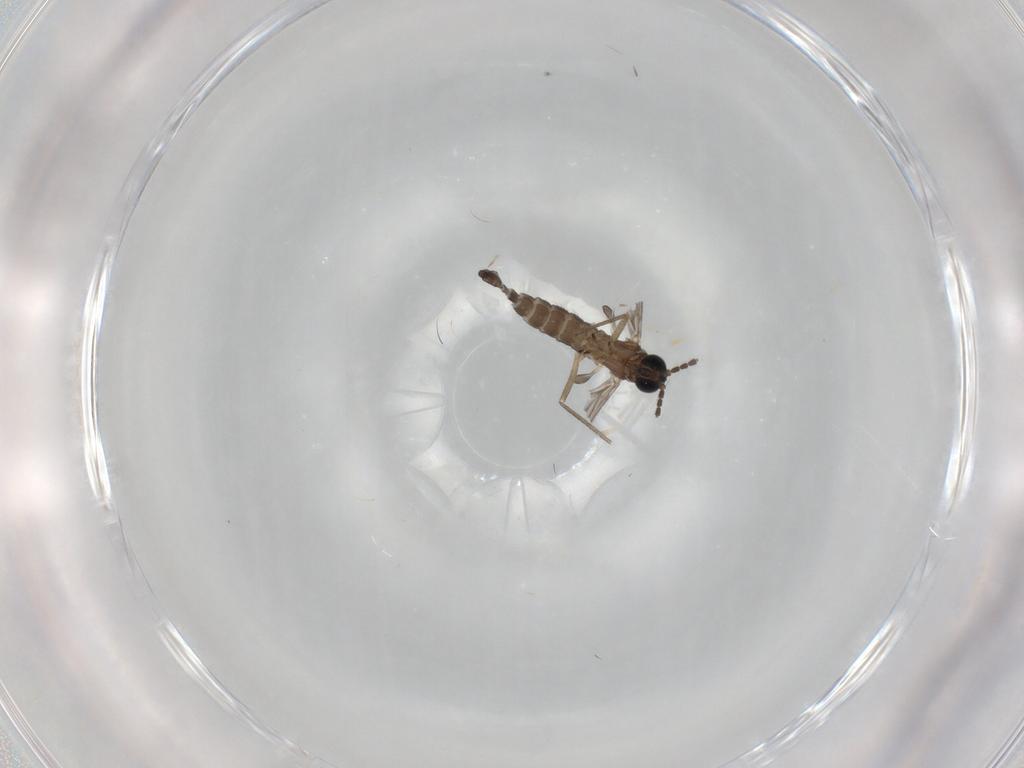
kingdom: Animalia
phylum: Arthropoda
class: Insecta
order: Diptera
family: Sciaridae
